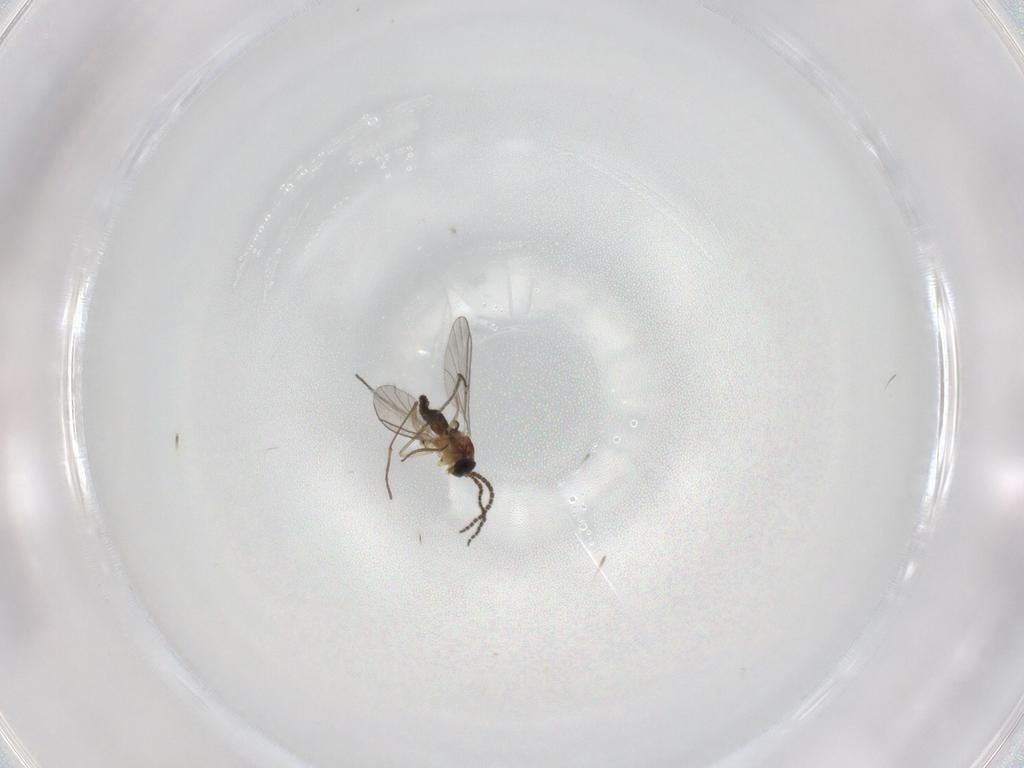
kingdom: Animalia
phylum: Arthropoda
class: Insecta
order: Diptera
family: Sciaridae
